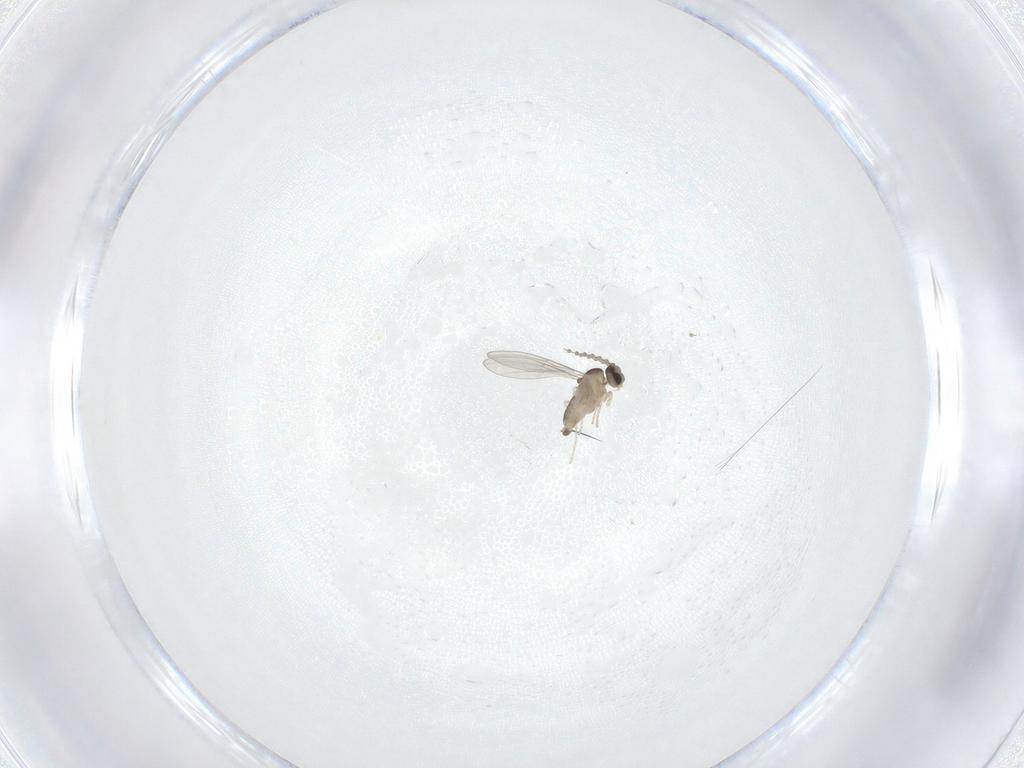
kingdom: Animalia
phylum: Arthropoda
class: Insecta
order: Diptera
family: Cecidomyiidae
